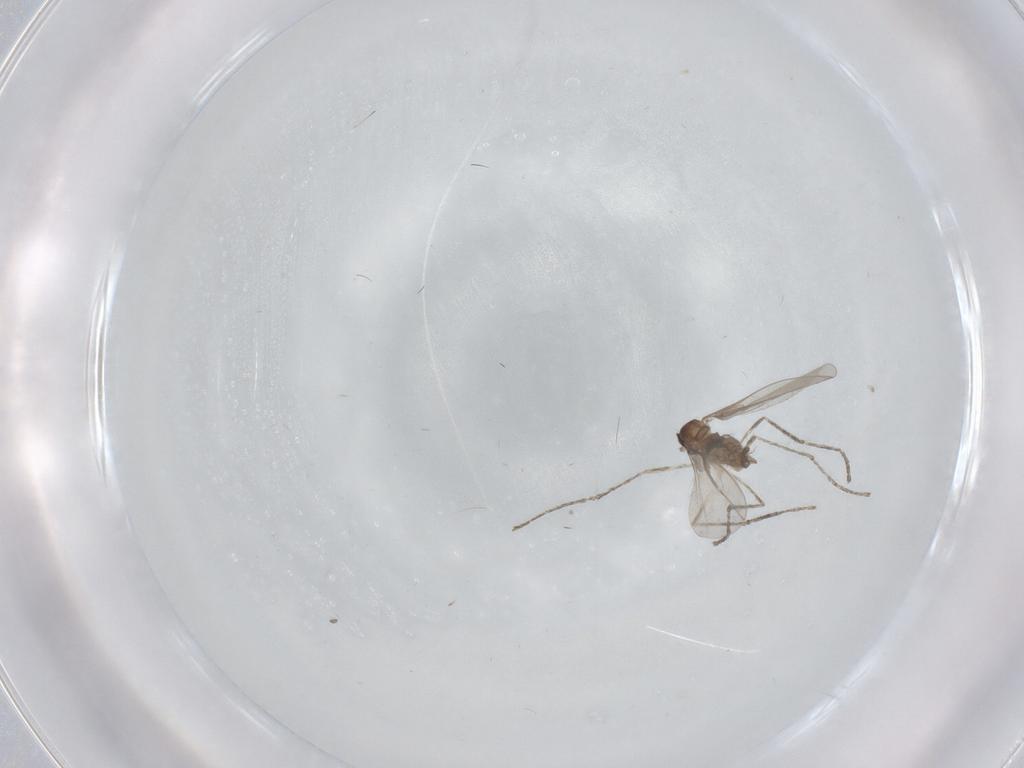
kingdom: Animalia
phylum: Arthropoda
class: Insecta
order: Diptera
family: Cecidomyiidae
